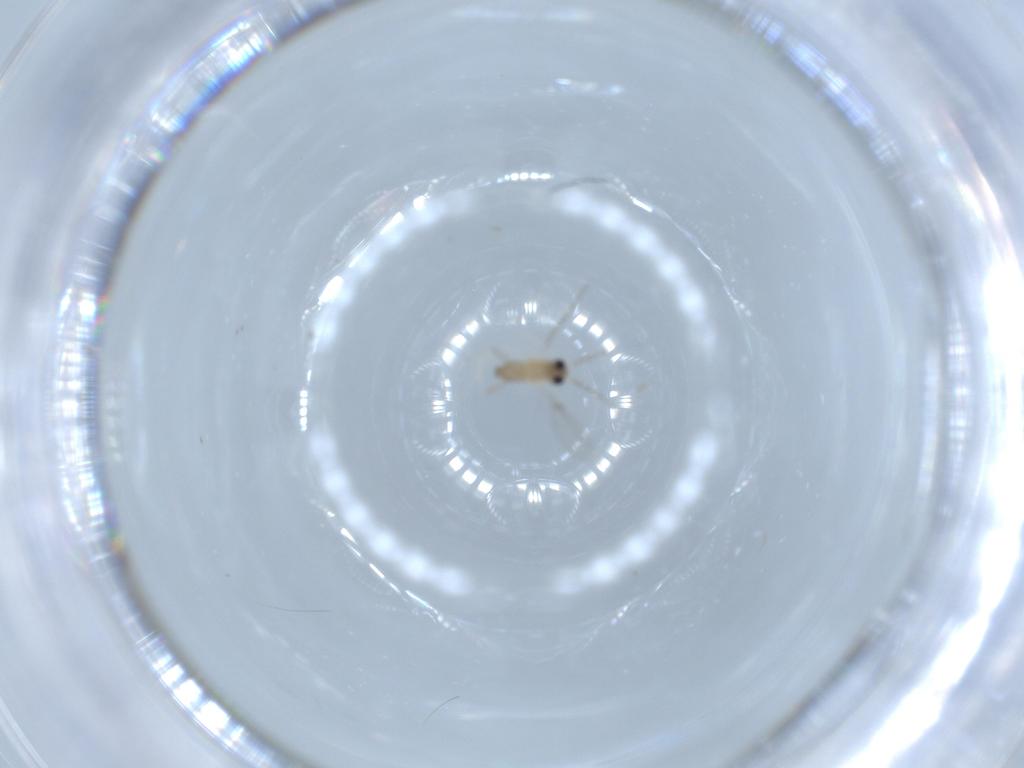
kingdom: Animalia
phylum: Arthropoda
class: Insecta
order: Diptera
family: Cecidomyiidae
